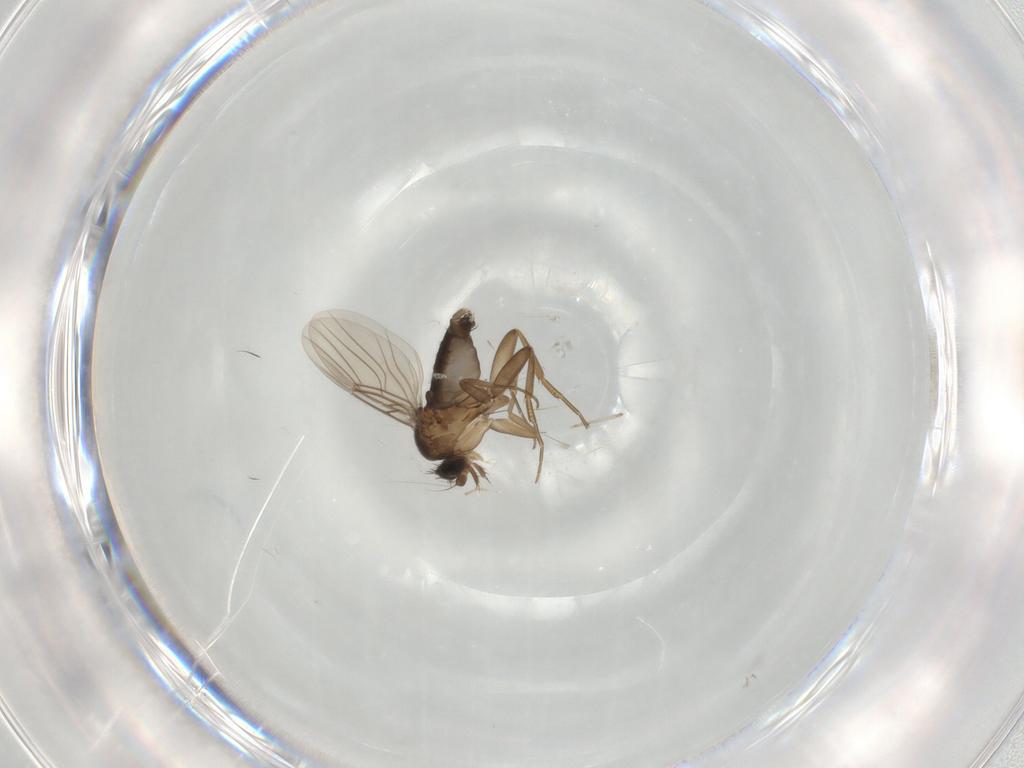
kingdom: Animalia
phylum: Arthropoda
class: Insecta
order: Diptera
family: Phoridae
